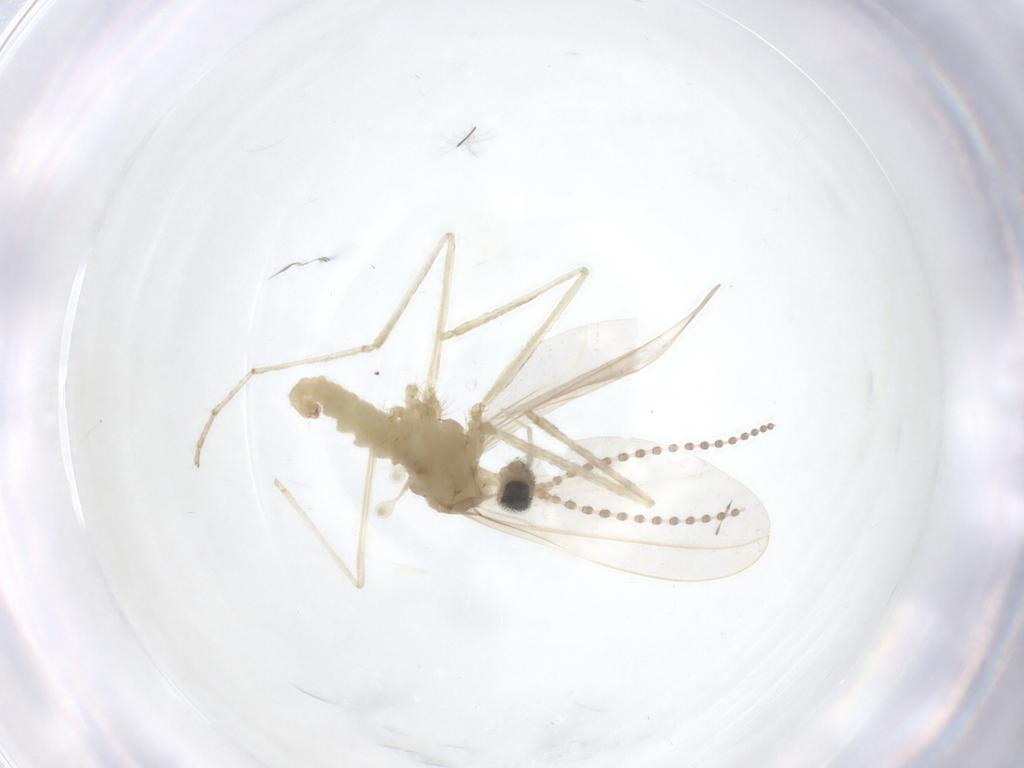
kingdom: Animalia
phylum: Arthropoda
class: Insecta
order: Diptera
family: Cecidomyiidae
